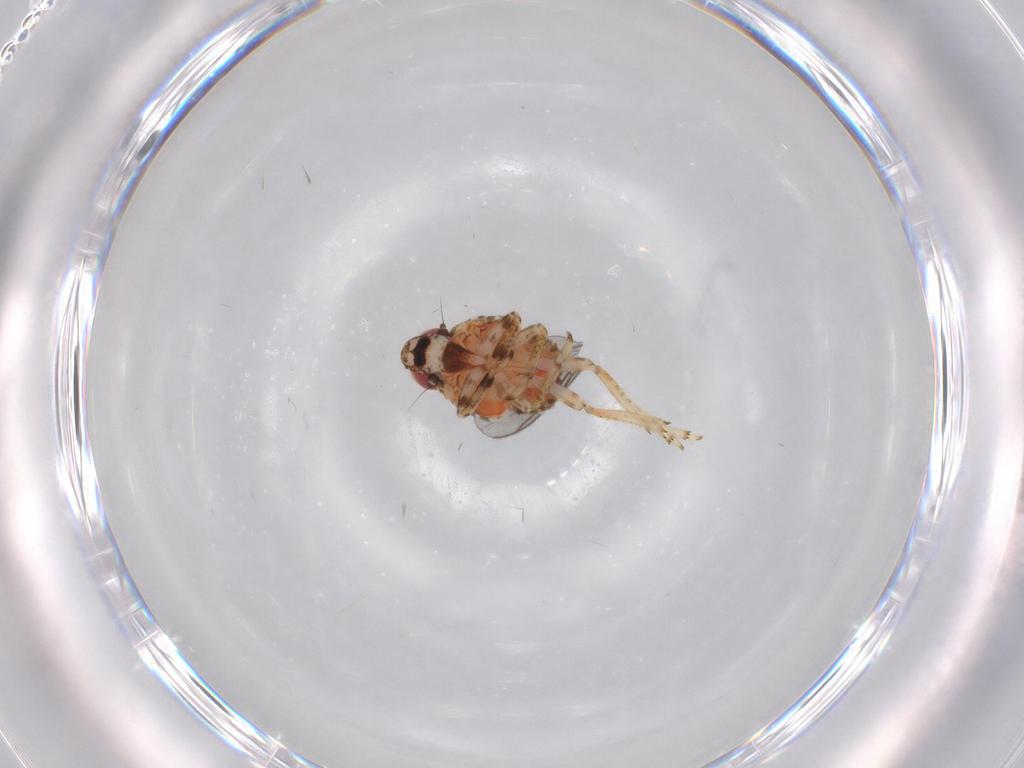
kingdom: Animalia
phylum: Arthropoda
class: Insecta
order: Hemiptera
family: Issidae
